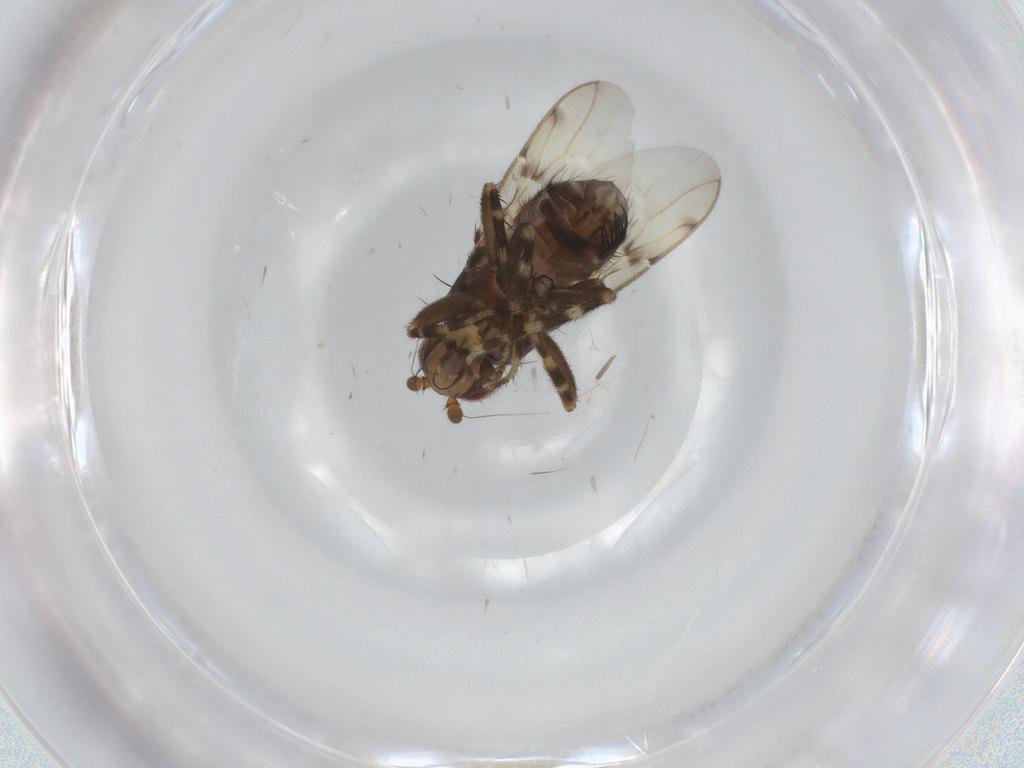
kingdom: Animalia
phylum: Arthropoda
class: Insecta
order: Diptera
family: Sphaeroceridae
